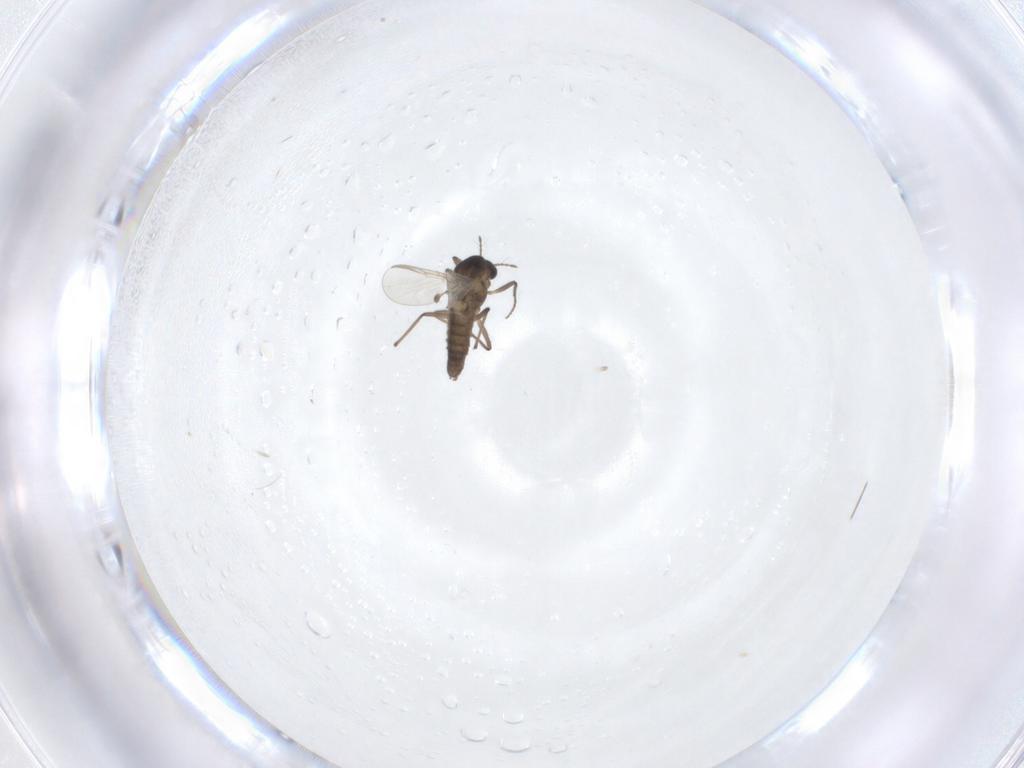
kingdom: Animalia
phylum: Arthropoda
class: Insecta
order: Diptera
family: Chironomidae
